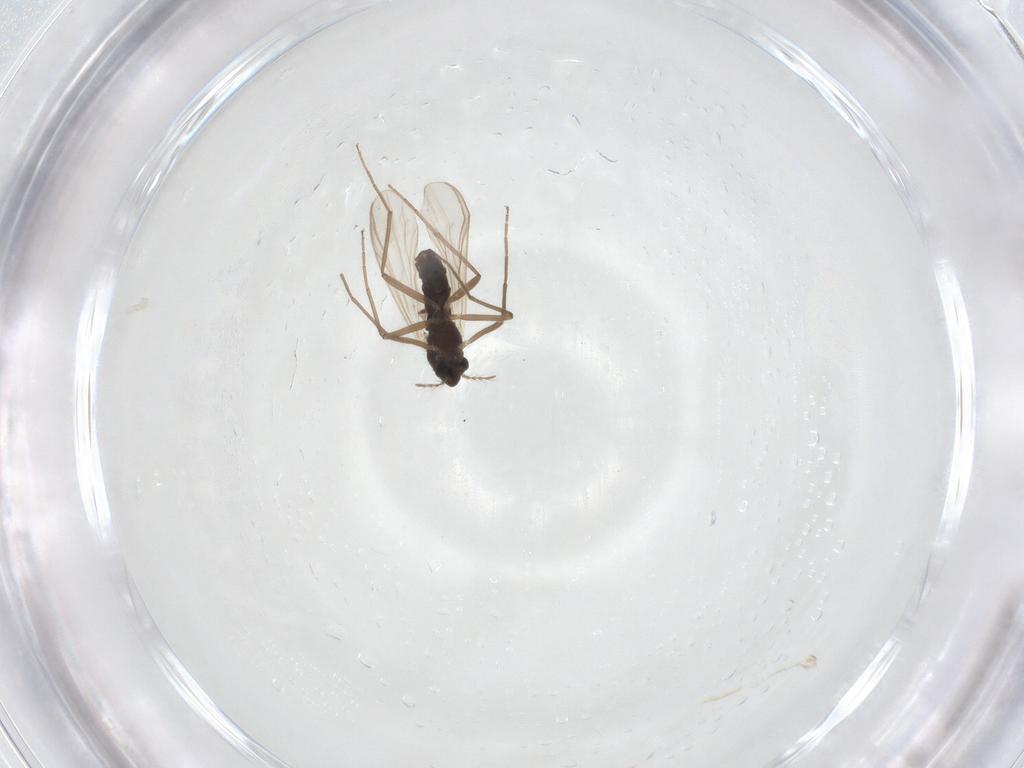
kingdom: Animalia
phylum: Arthropoda
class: Insecta
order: Diptera
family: Chironomidae
